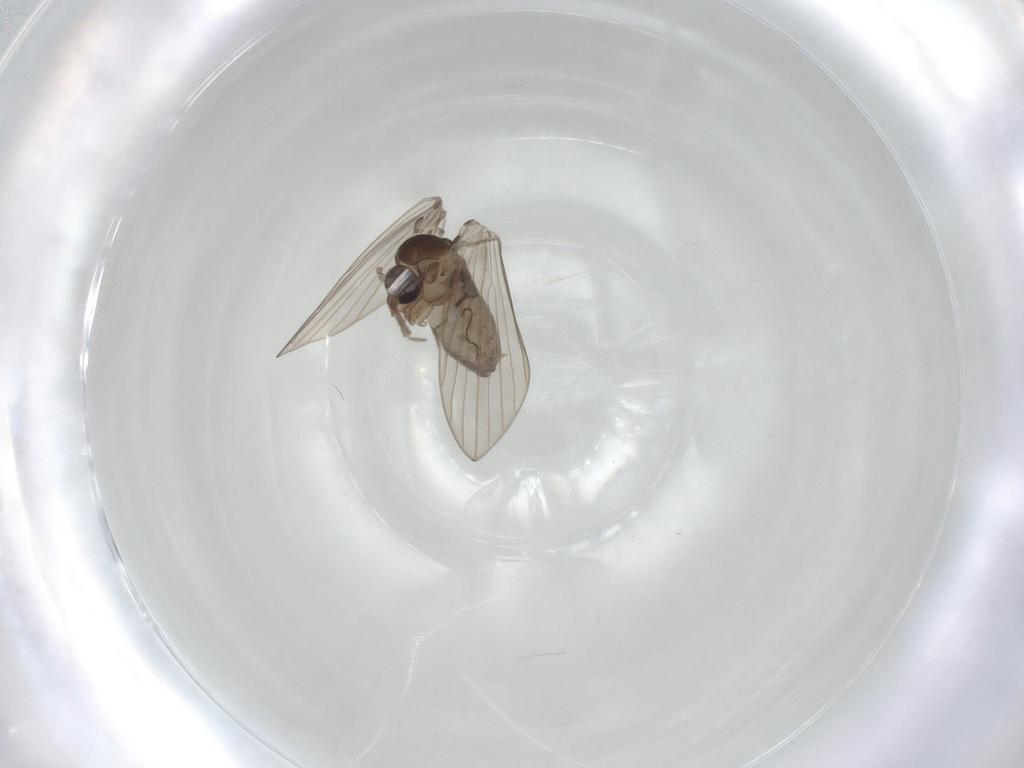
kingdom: Animalia
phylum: Arthropoda
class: Insecta
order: Diptera
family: Psychodidae
